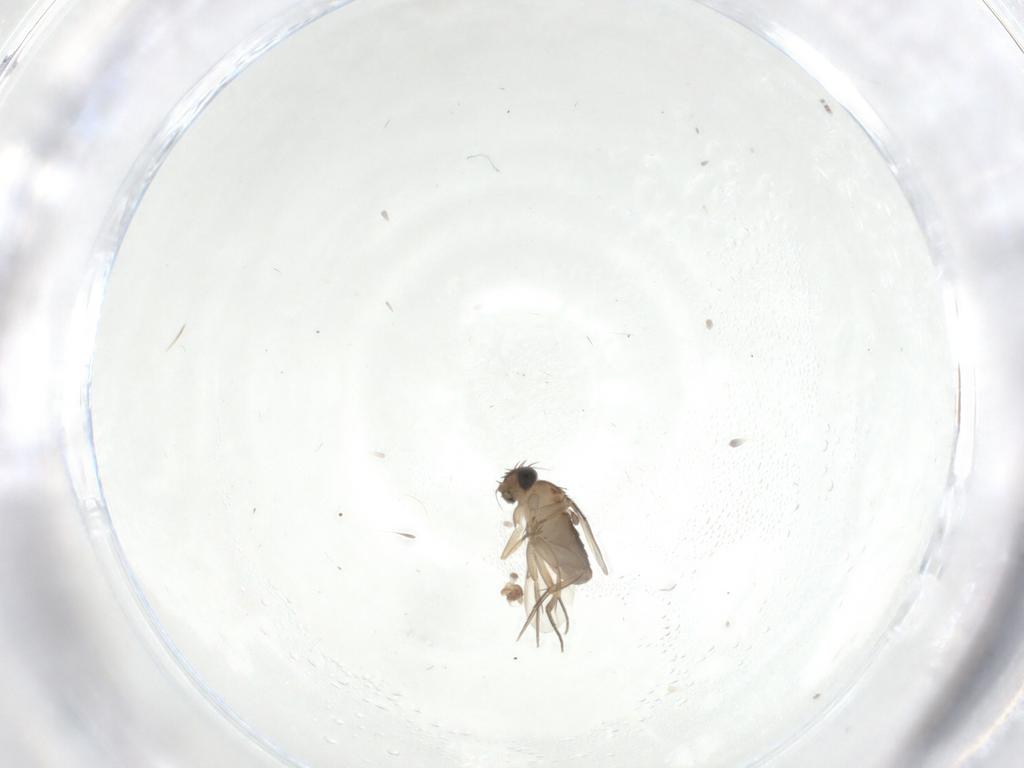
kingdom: Animalia
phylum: Arthropoda
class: Insecta
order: Diptera
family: Phoridae
